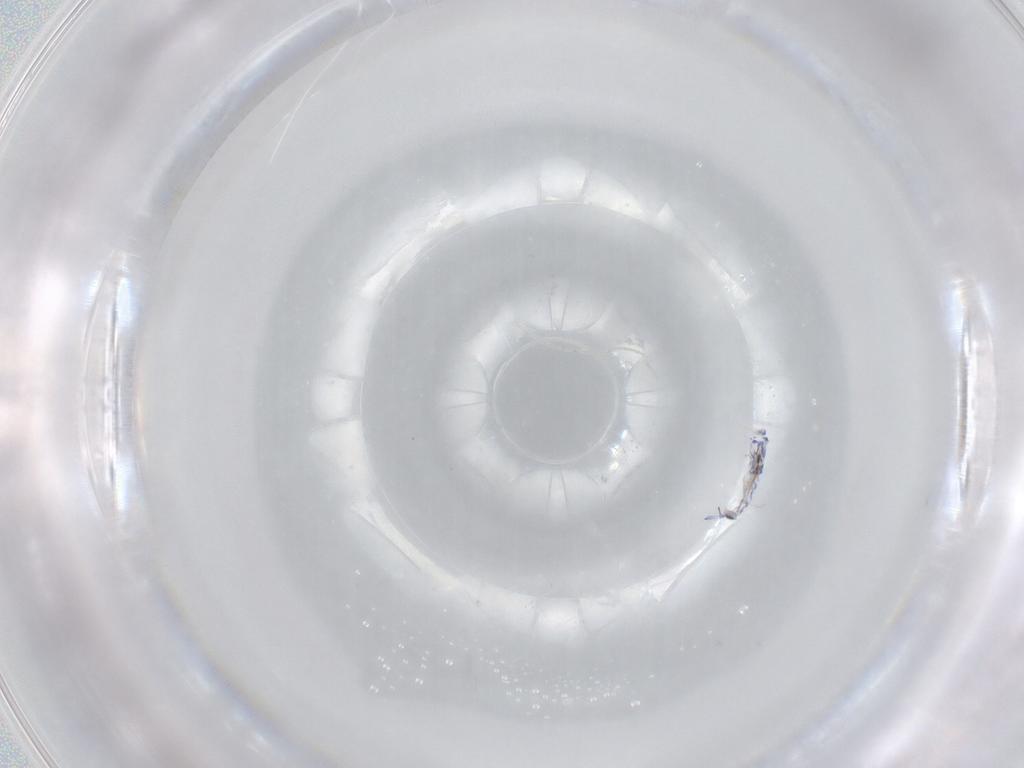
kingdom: Animalia
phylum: Arthropoda
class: Collembola
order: Entomobryomorpha
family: Entomobryidae
